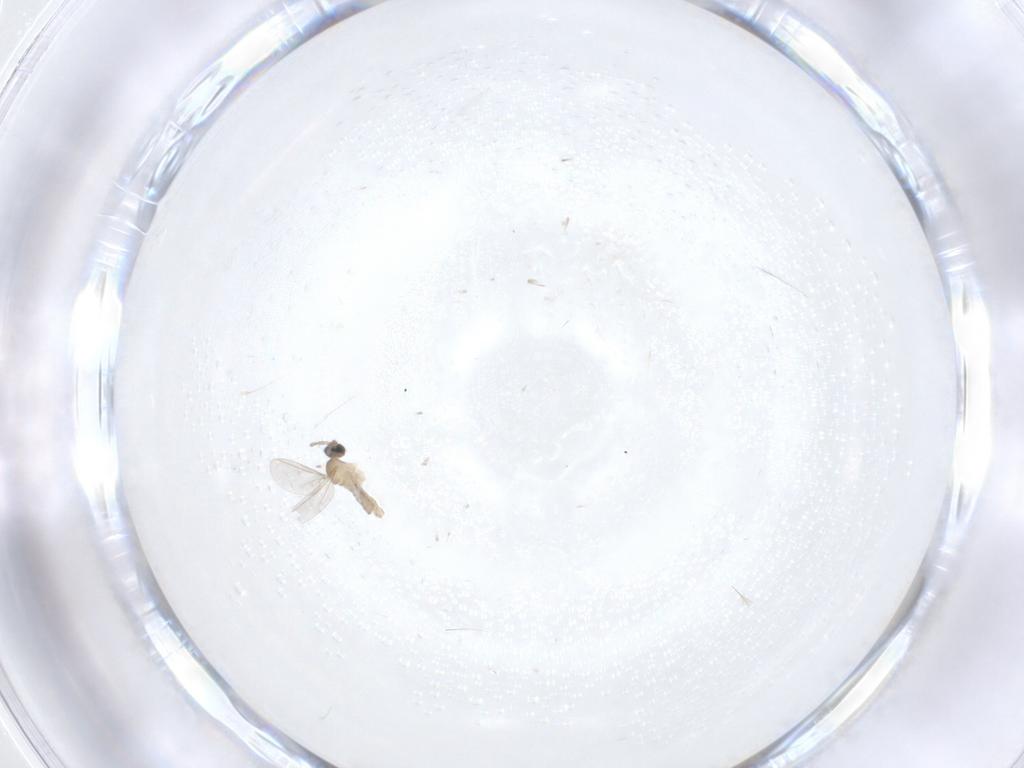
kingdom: Animalia
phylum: Arthropoda
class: Insecta
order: Diptera
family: Cecidomyiidae
